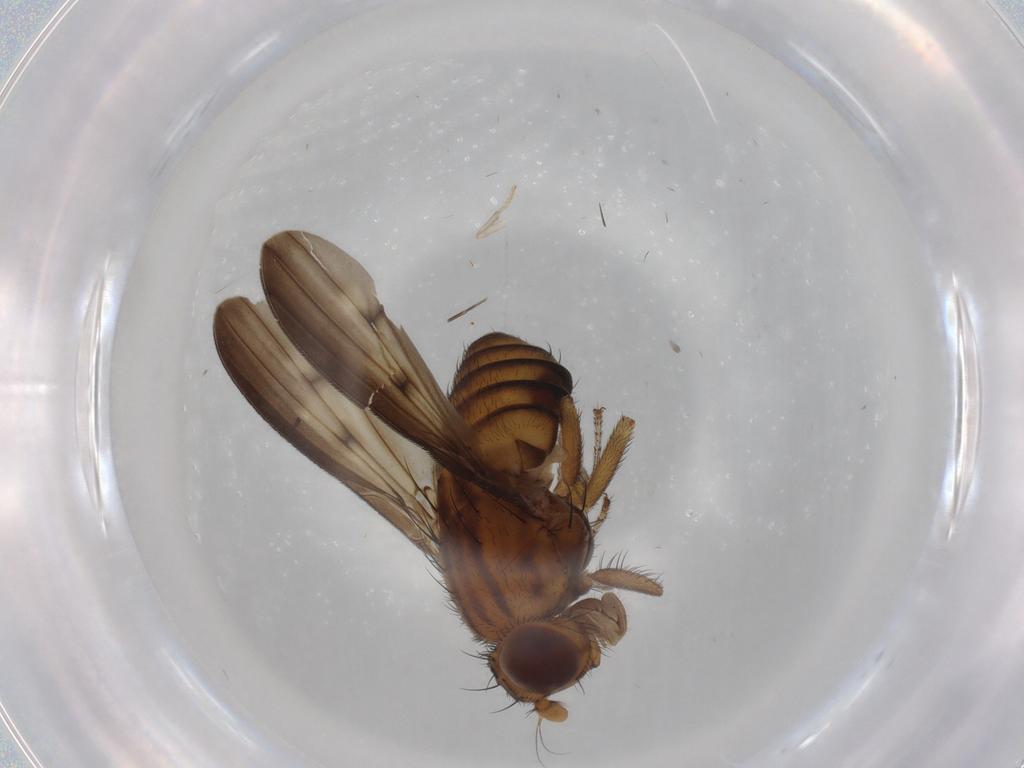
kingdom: Animalia
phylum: Arthropoda
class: Insecta
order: Diptera
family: Lauxaniidae
